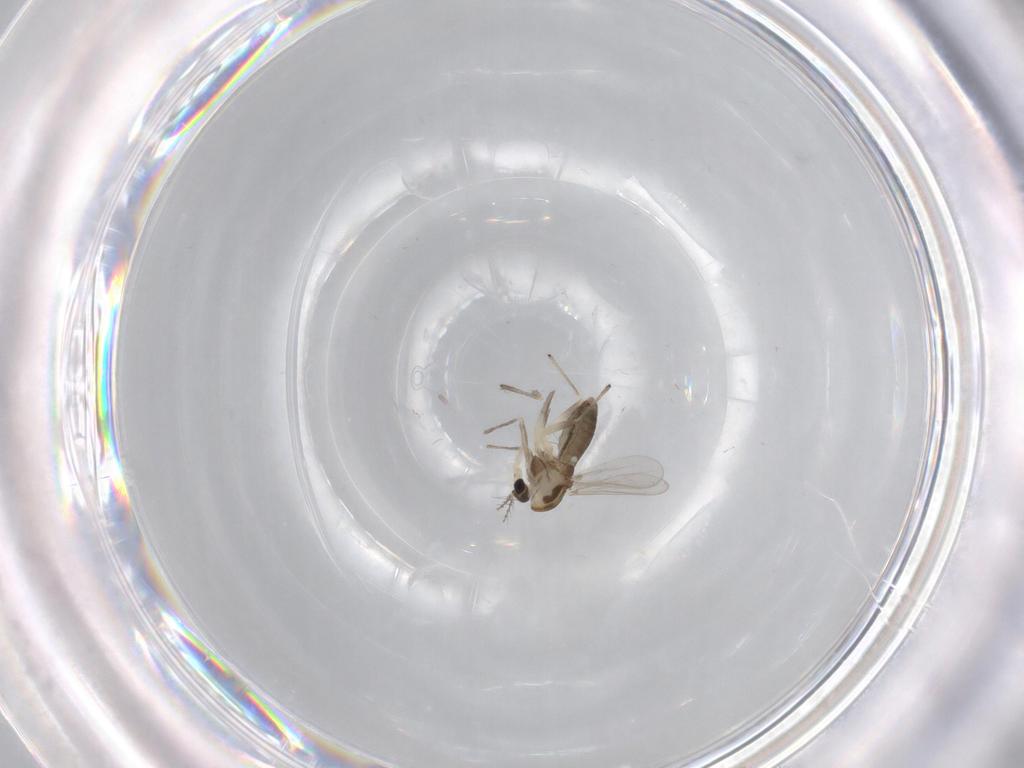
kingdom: Animalia
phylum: Arthropoda
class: Insecta
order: Diptera
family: Chironomidae
